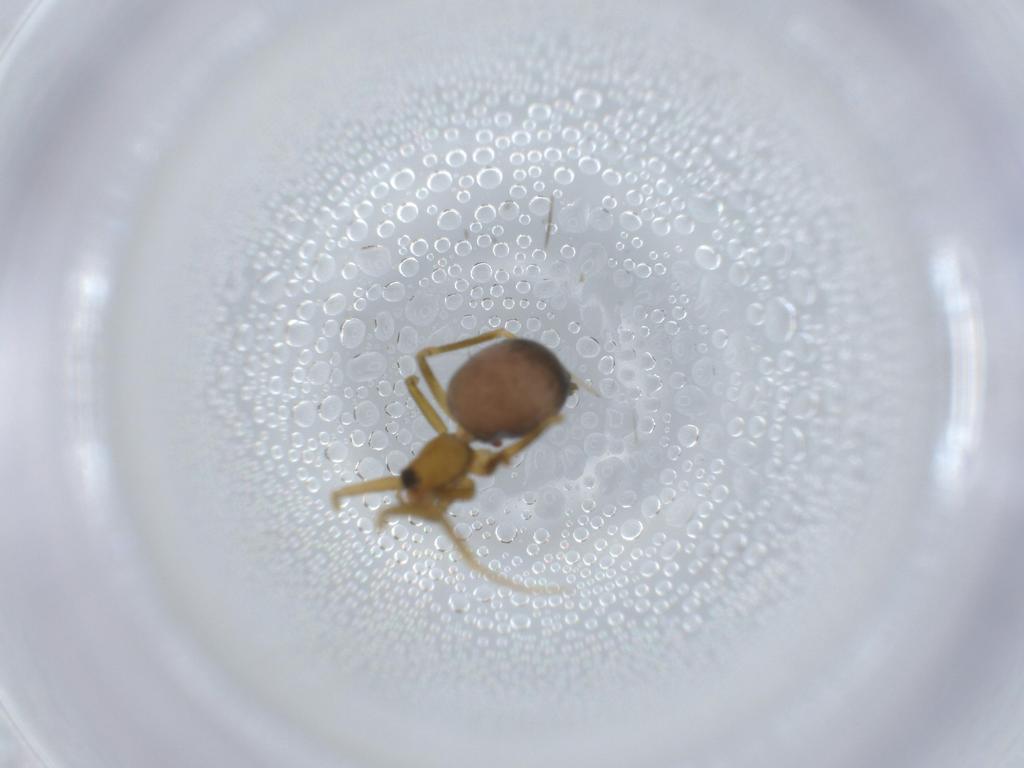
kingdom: Animalia
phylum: Arthropoda
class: Arachnida
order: Araneae
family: Linyphiidae
